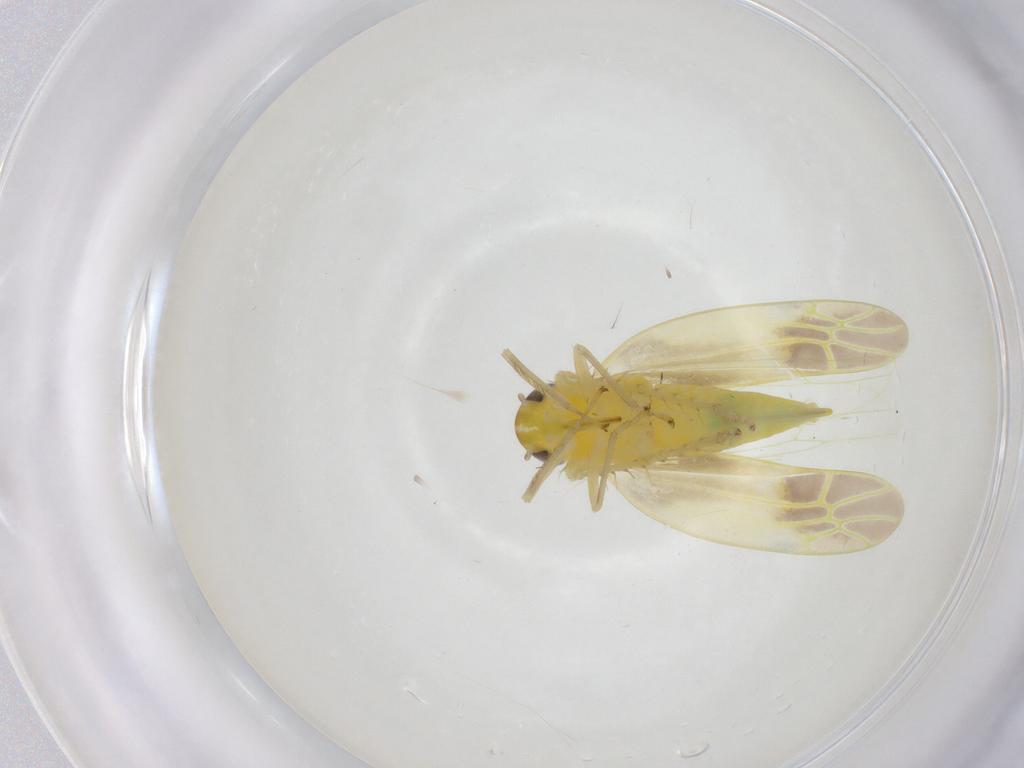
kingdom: Animalia
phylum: Arthropoda
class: Insecta
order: Hemiptera
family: Cicadellidae
